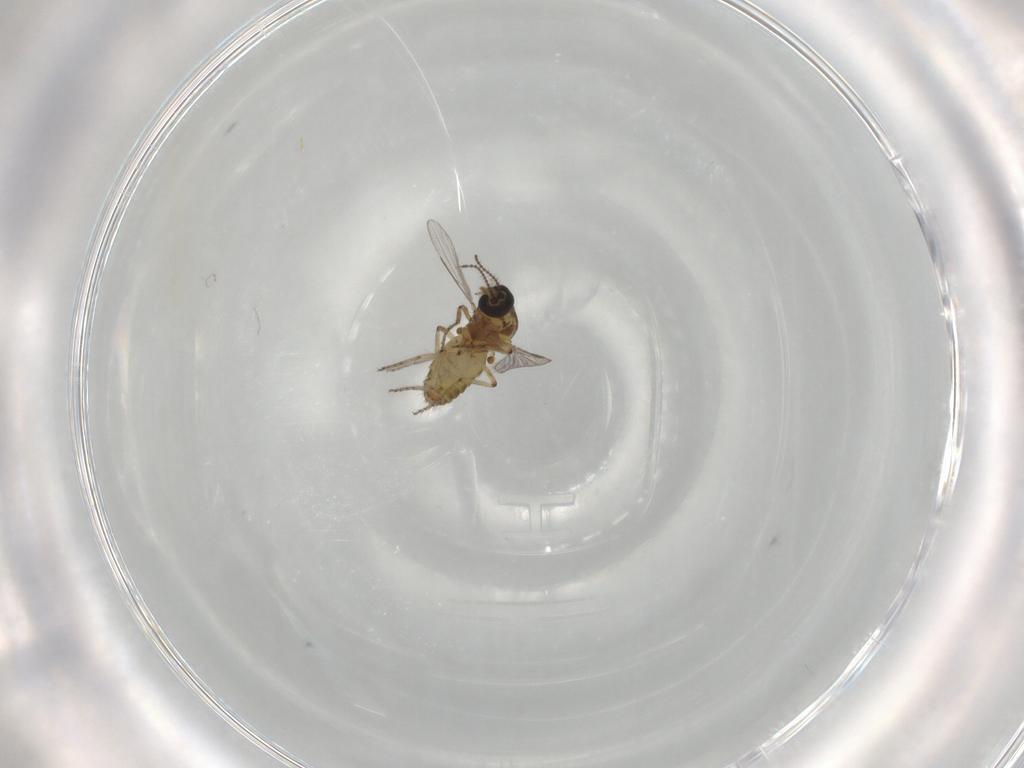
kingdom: Animalia
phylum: Arthropoda
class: Insecta
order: Diptera
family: Ceratopogonidae
